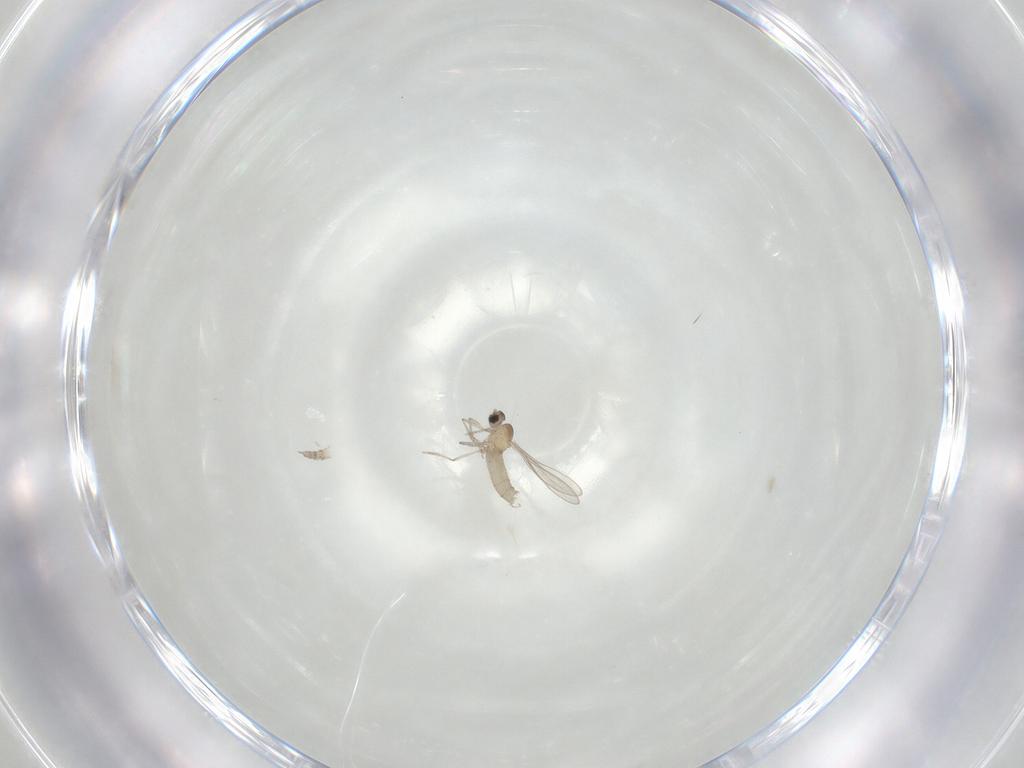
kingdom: Animalia
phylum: Arthropoda
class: Insecta
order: Diptera
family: Cecidomyiidae
